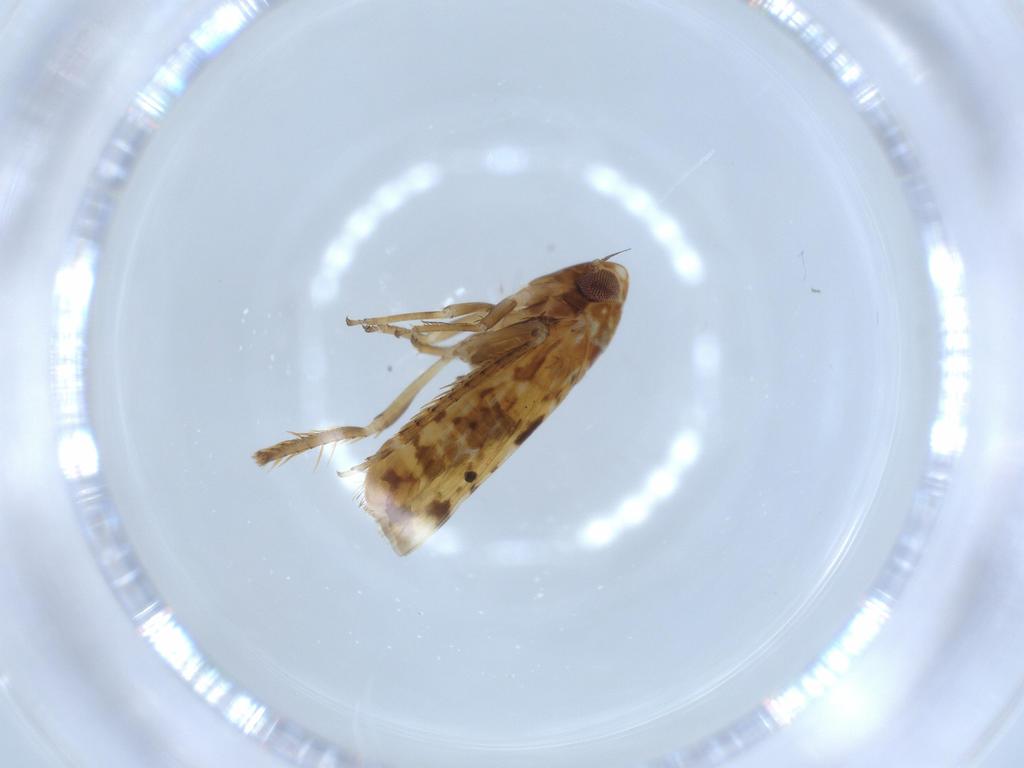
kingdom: Animalia
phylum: Arthropoda
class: Insecta
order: Hemiptera
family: Cicadellidae
